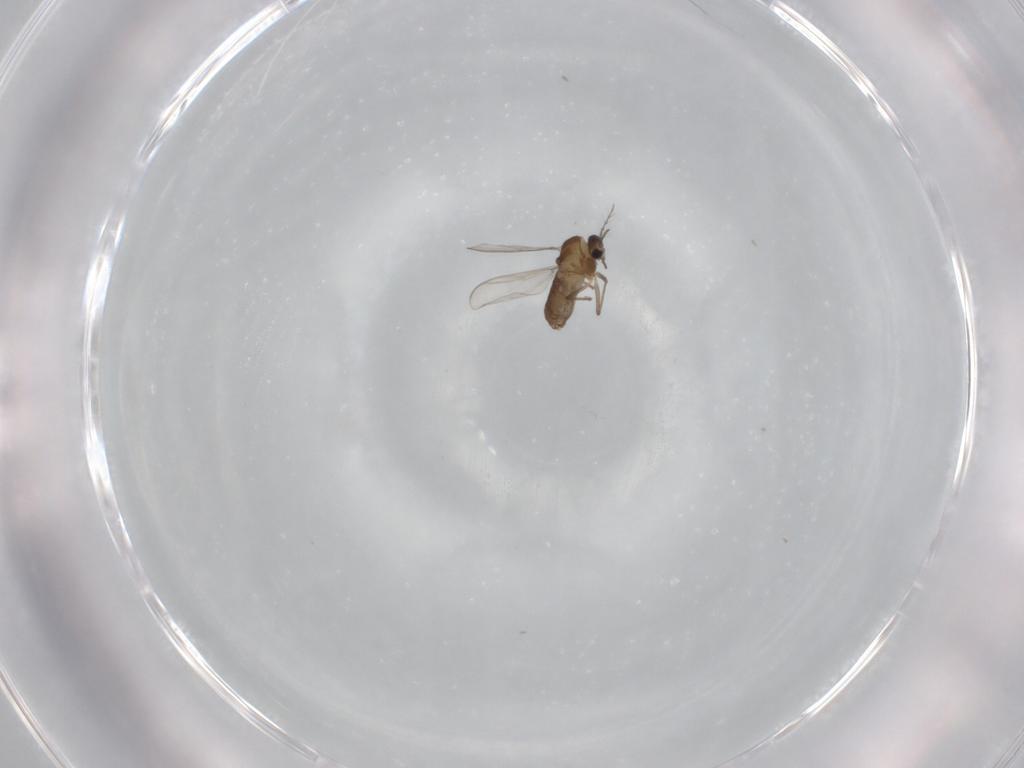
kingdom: Animalia
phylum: Arthropoda
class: Insecta
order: Diptera
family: Chironomidae
